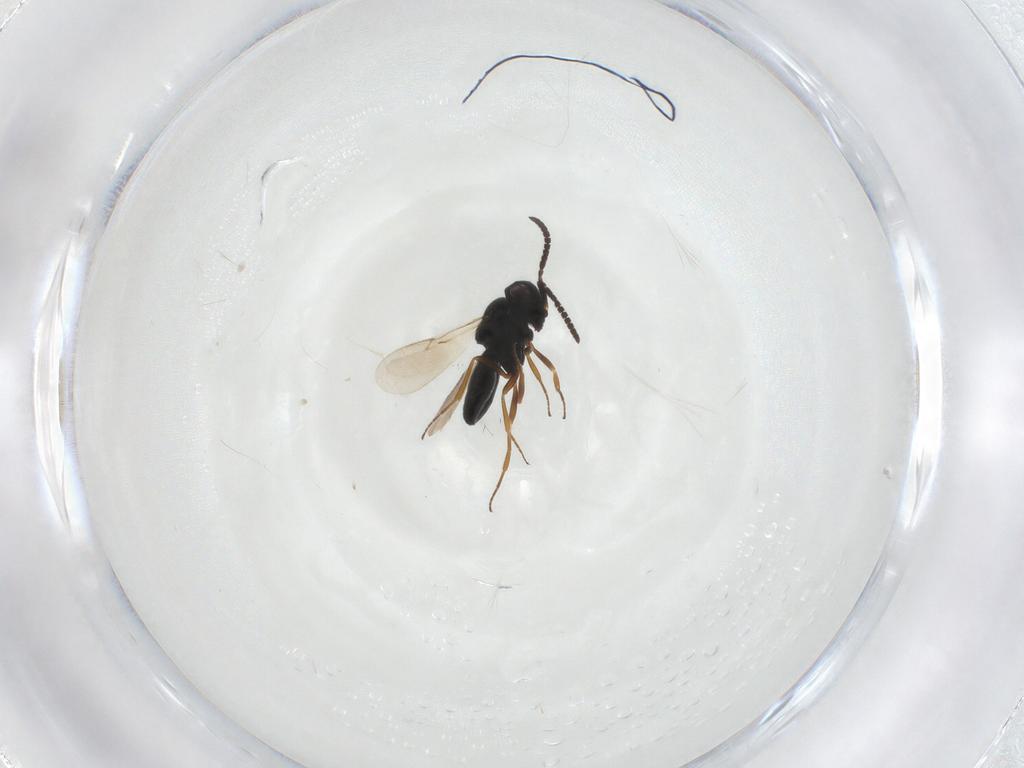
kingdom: Animalia
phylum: Arthropoda
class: Insecta
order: Hymenoptera
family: Scelionidae
